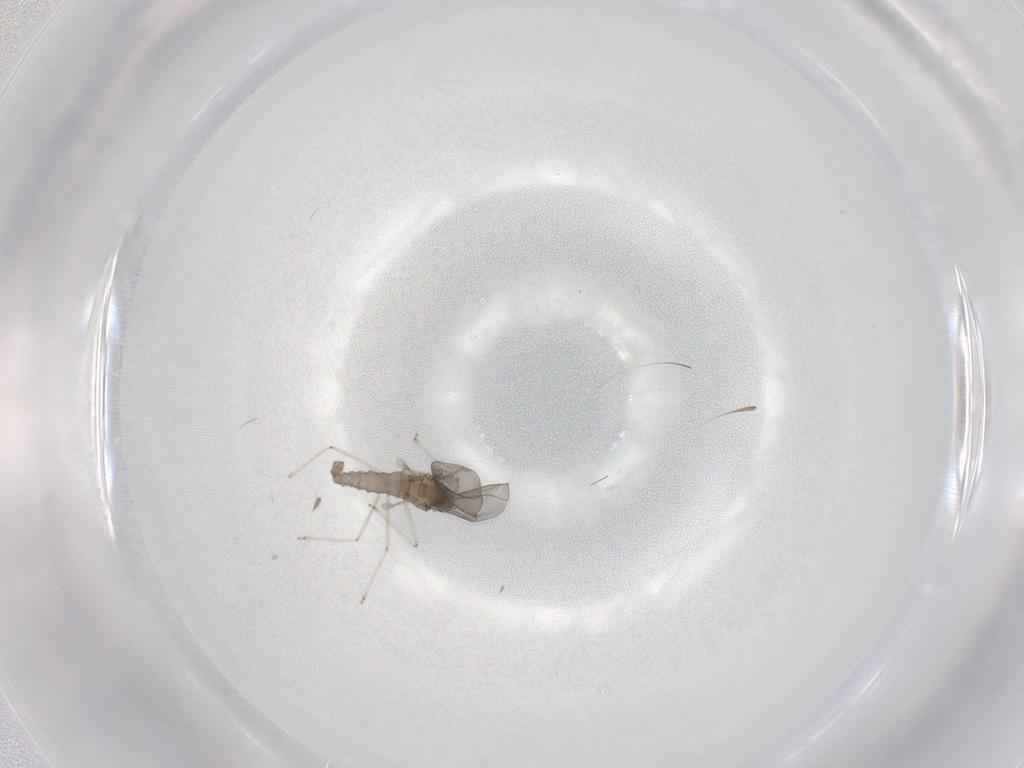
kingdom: Animalia
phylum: Arthropoda
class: Insecta
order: Diptera
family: Cecidomyiidae
